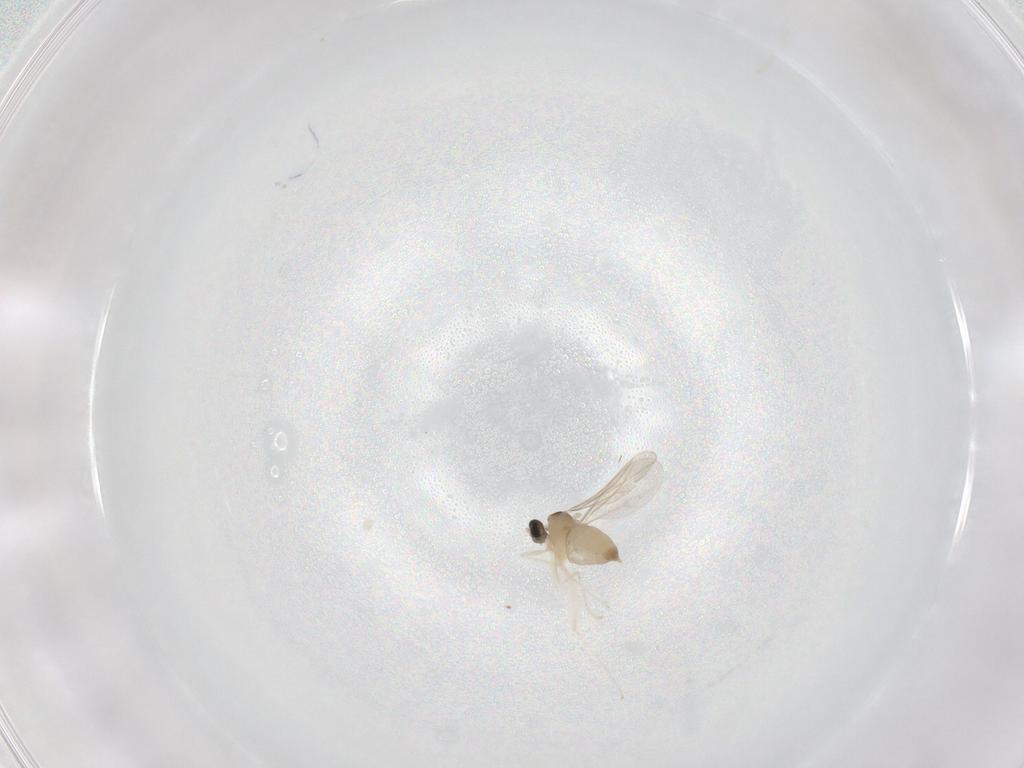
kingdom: Animalia
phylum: Arthropoda
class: Insecta
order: Diptera
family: Cecidomyiidae
